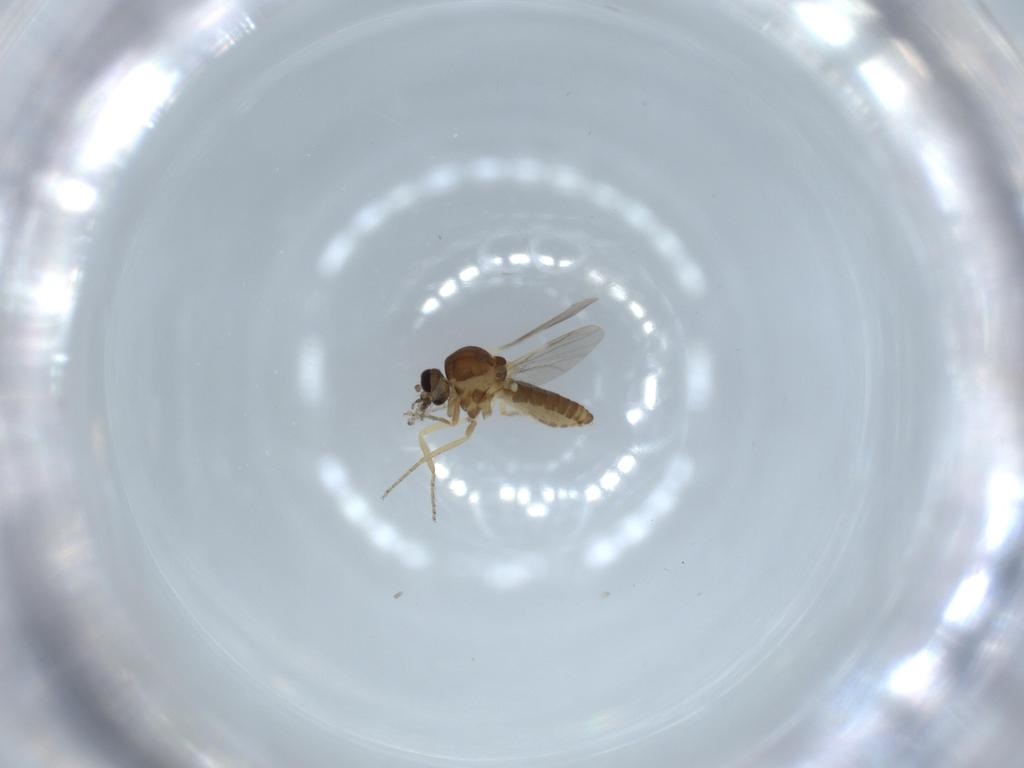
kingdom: Animalia
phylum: Arthropoda
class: Insecta
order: Diptera
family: Ceratopogonidae
